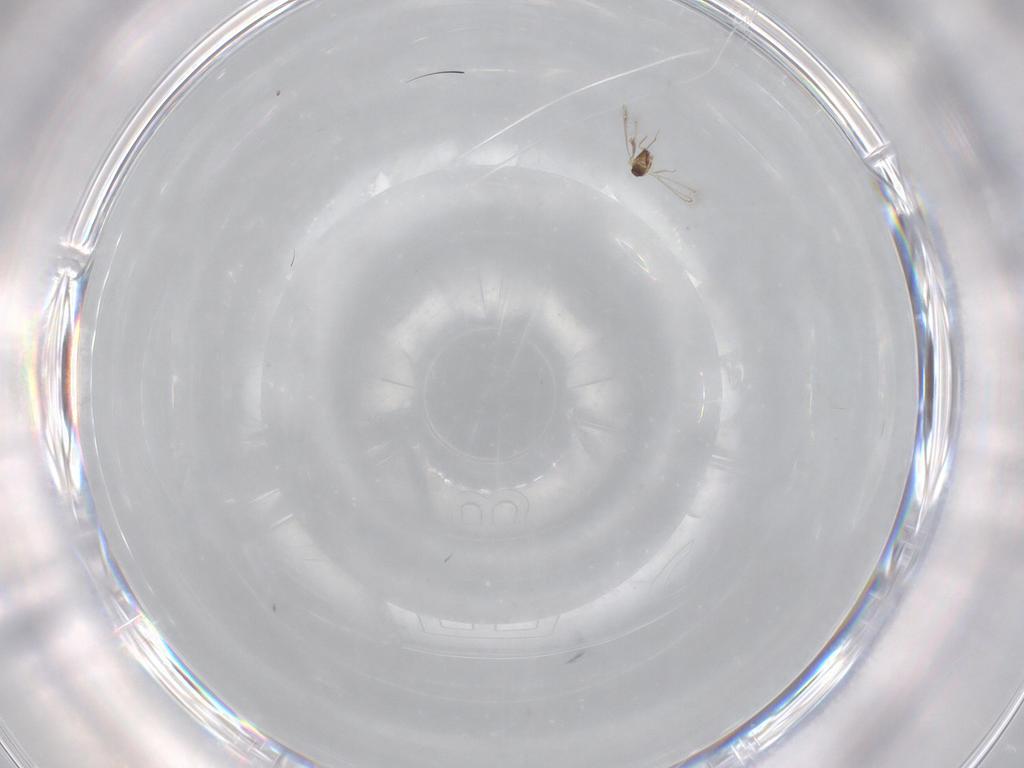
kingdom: Animalia
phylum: Arthropoda
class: Insecta
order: Hymenoptera
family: Mymaridae
